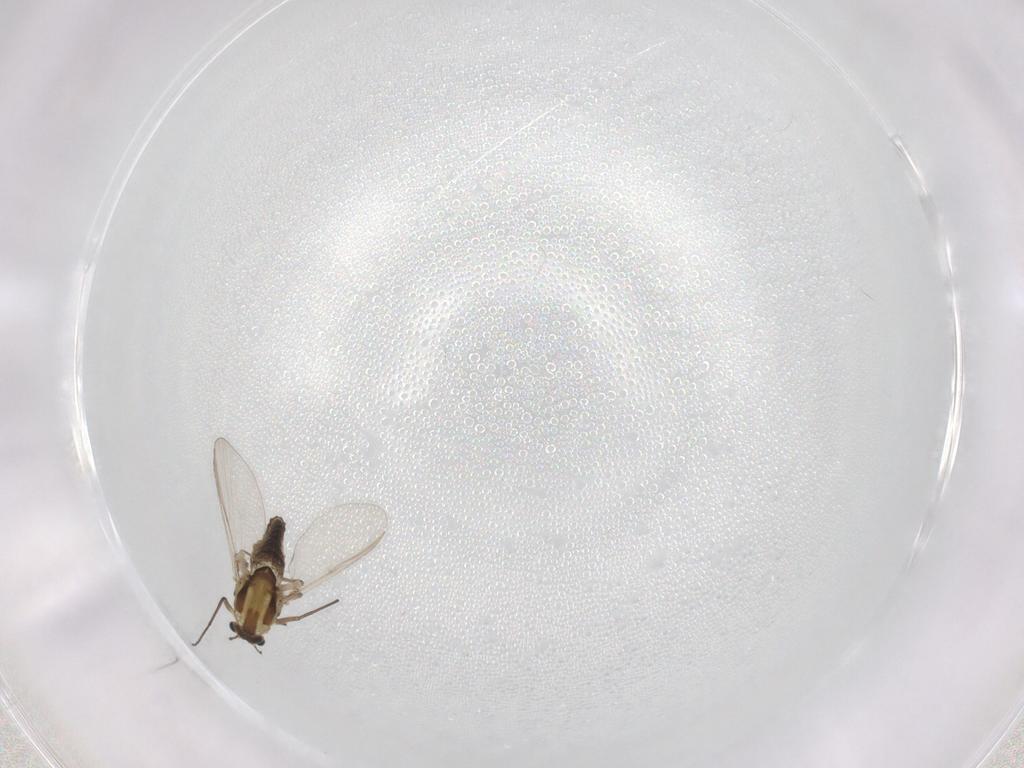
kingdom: Animalia
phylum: Arthropoda
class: Insecta
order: Diptera
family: Chironomidae
